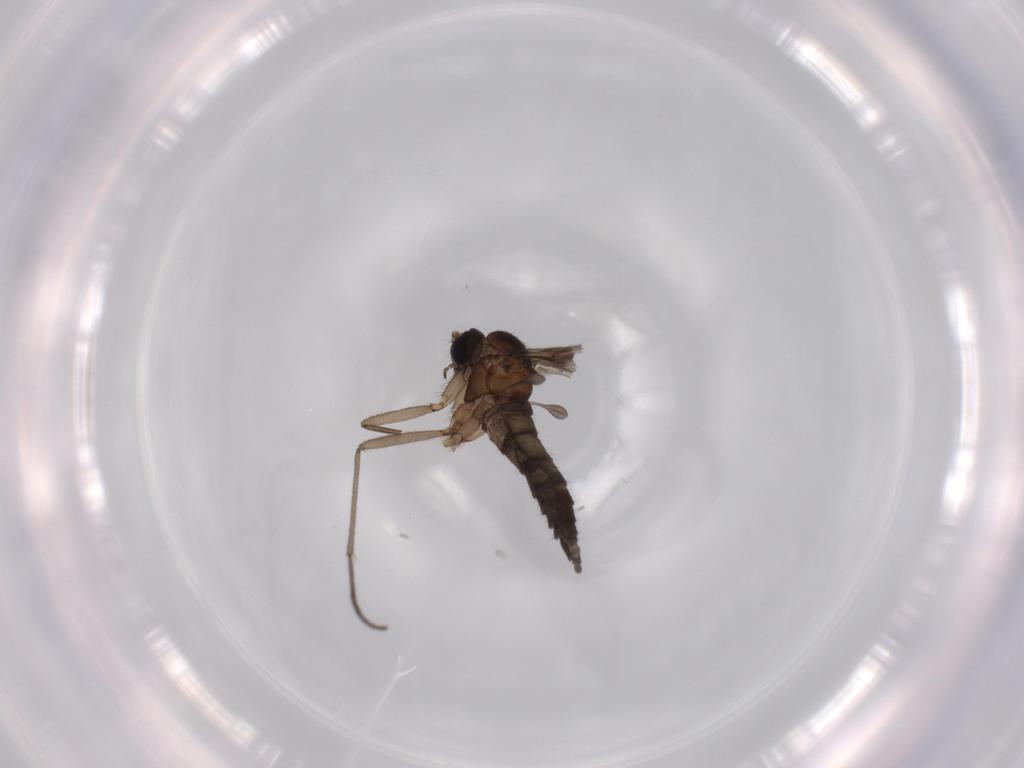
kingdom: Animalia
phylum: Arthropoda
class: Insecta
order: Diptera
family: Sciaridae
